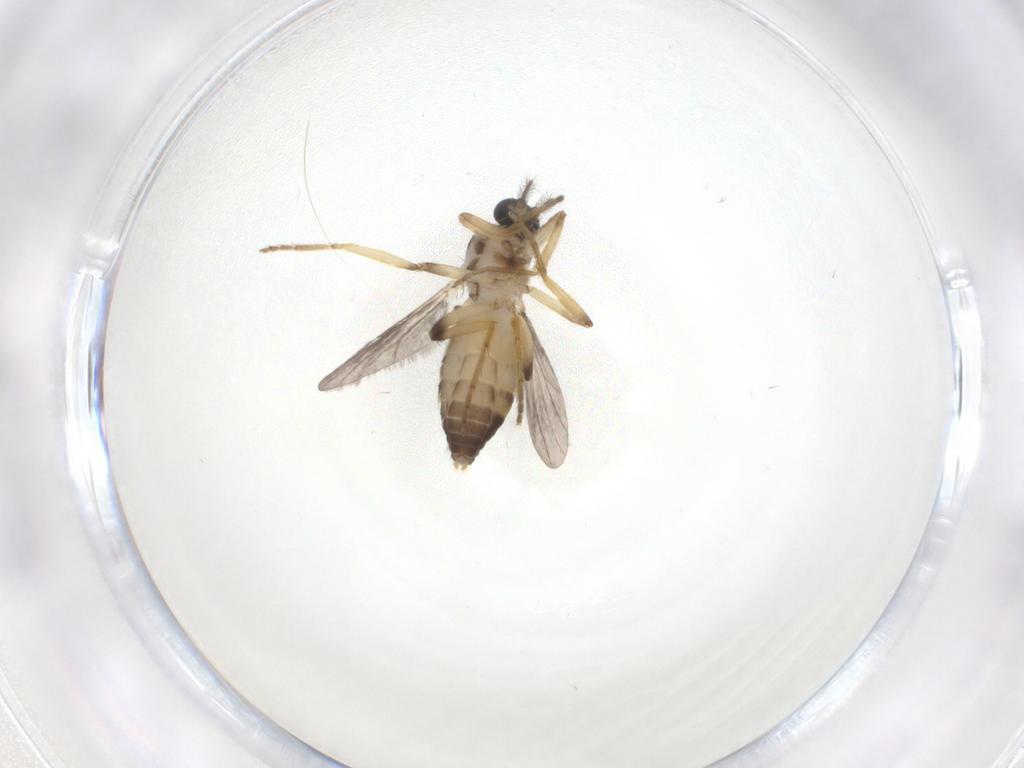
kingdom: Animalia
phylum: Arthropoda
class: Insecta
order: Diptera
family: Ceratopogonidae
